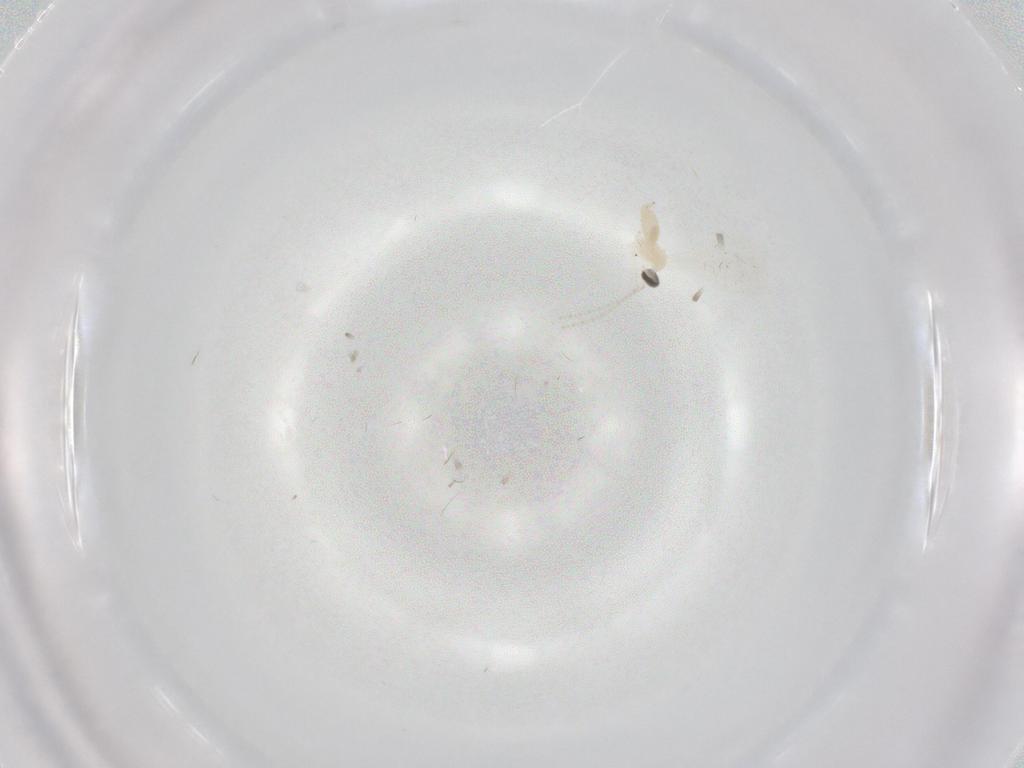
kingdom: Animalia
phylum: Arthropoda
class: Insecta
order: Diptera
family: Cecidomyiidae
